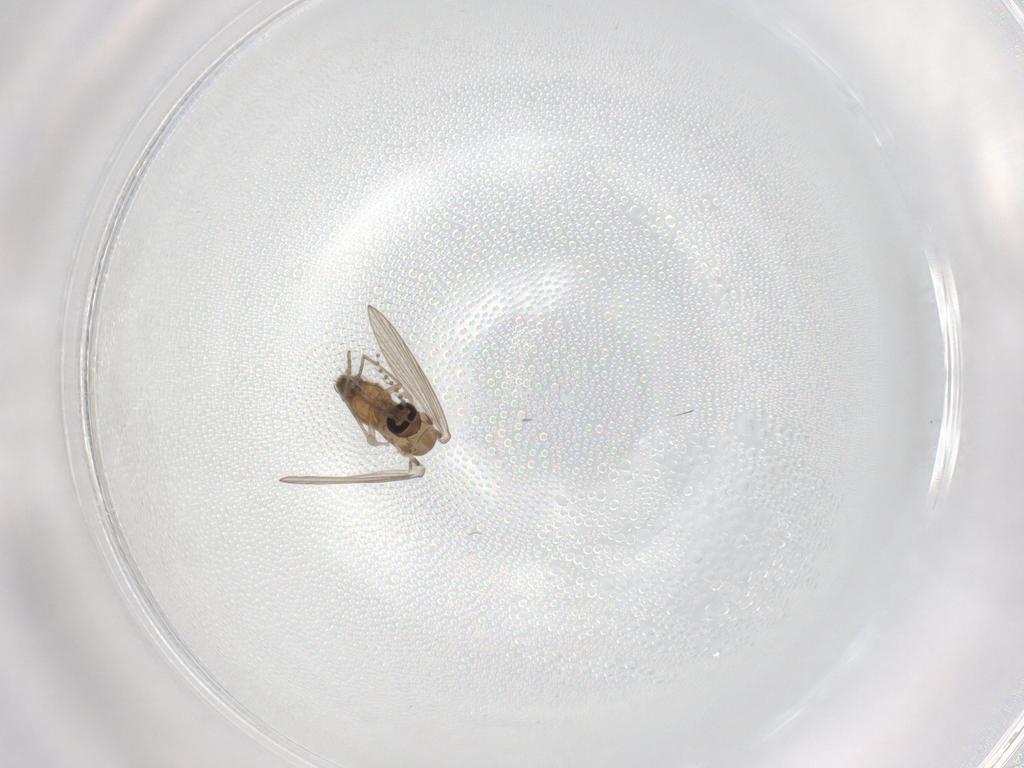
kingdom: Animalia
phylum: Arthropoda
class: Insecta
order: Diptera
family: Psychodidae
